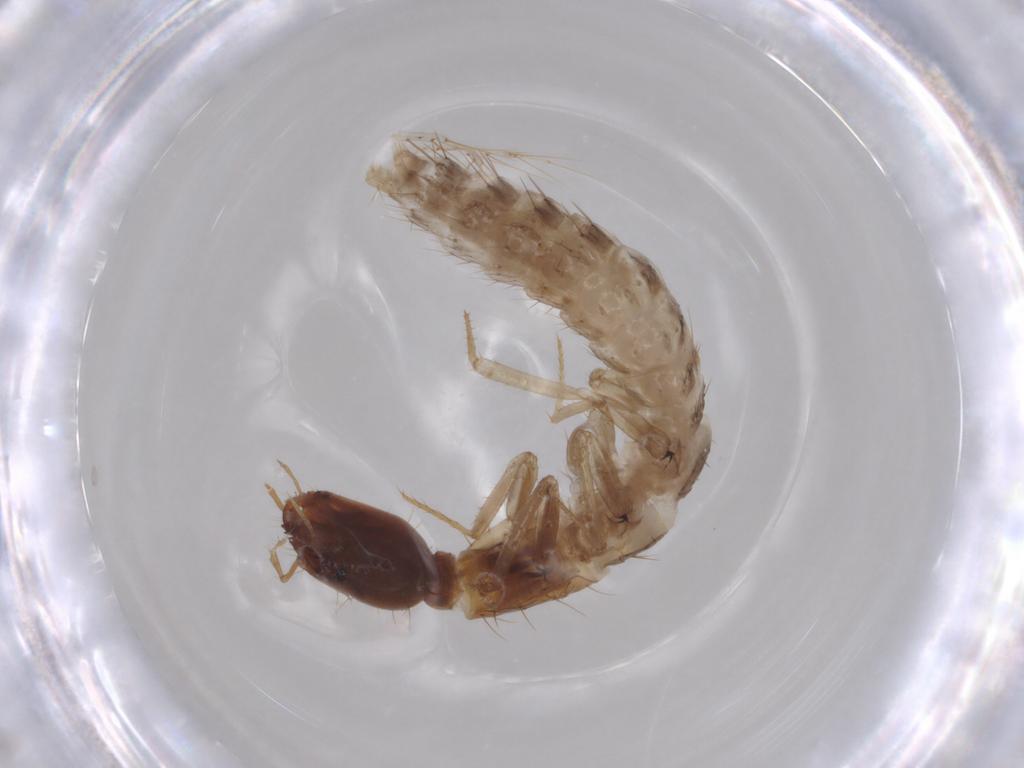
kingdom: Animalia
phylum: Arthropoda
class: Insecta
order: Coleoptera
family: Staphylinidae
